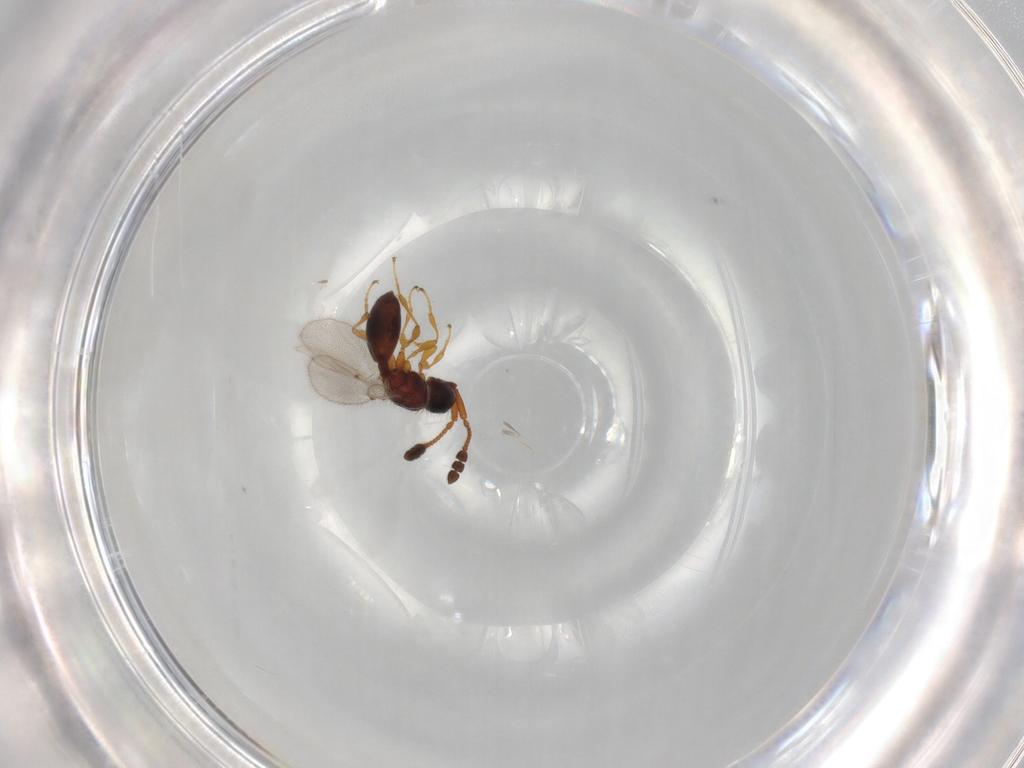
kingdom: Animalia
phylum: Arthropoda
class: Insecta
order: Hymenoptera
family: Diapriidae
